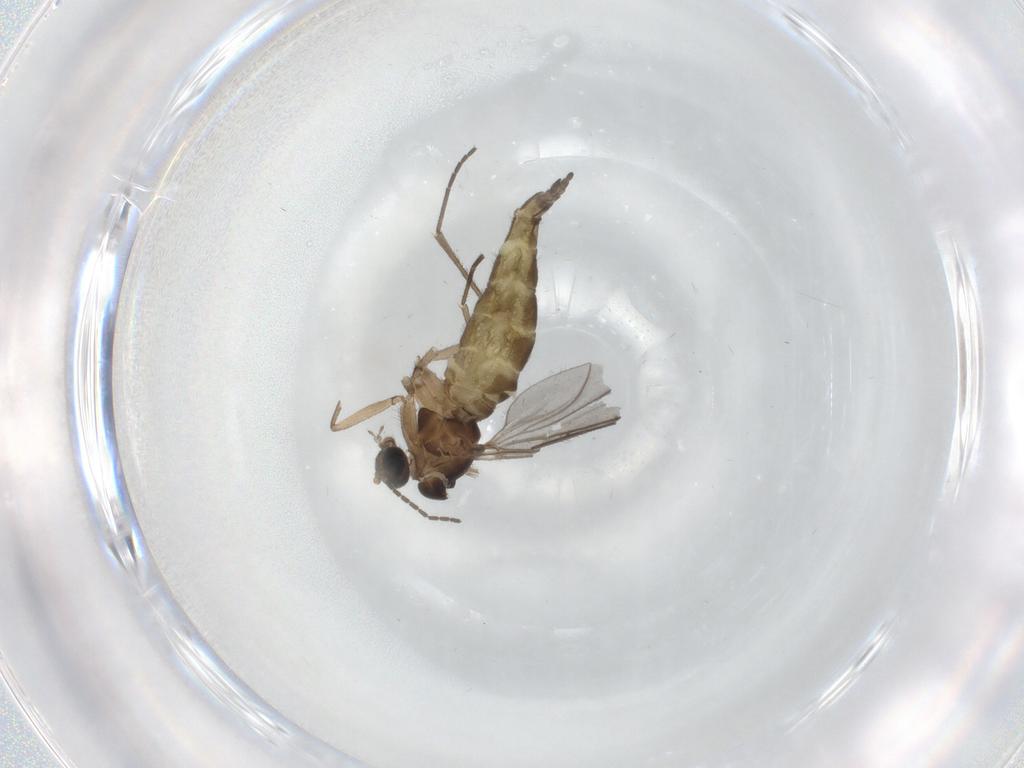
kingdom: Animalia
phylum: Arthropoda
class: Insecta
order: Diptera
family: Cecidomyiidae
